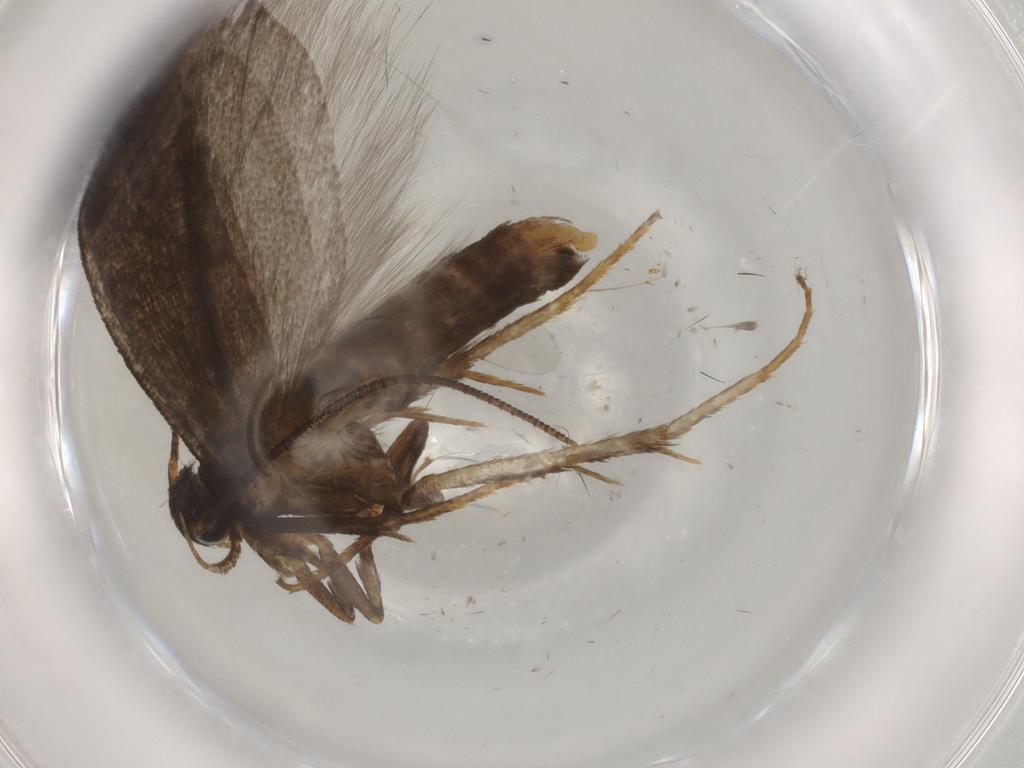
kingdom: Animalia
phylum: Arthropoda
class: Insecta
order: Lepidoptera
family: Gelechiidae
